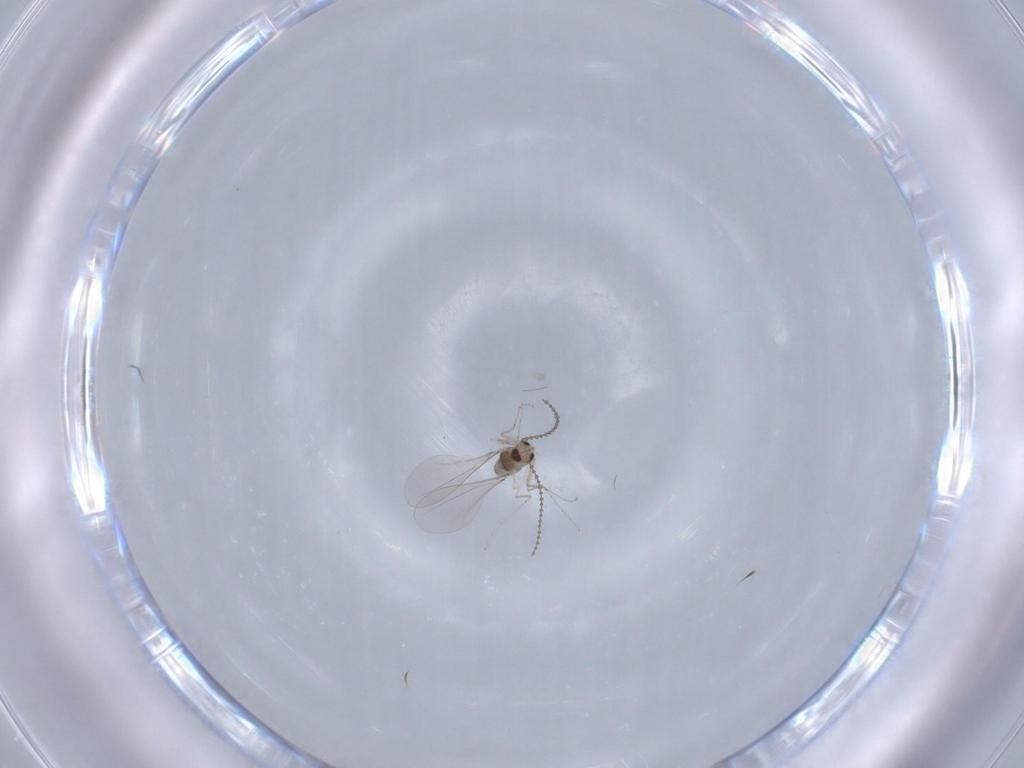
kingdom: Animalia
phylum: Arthropoda
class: Insecta
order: Diptera
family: Cecidomyiidae
